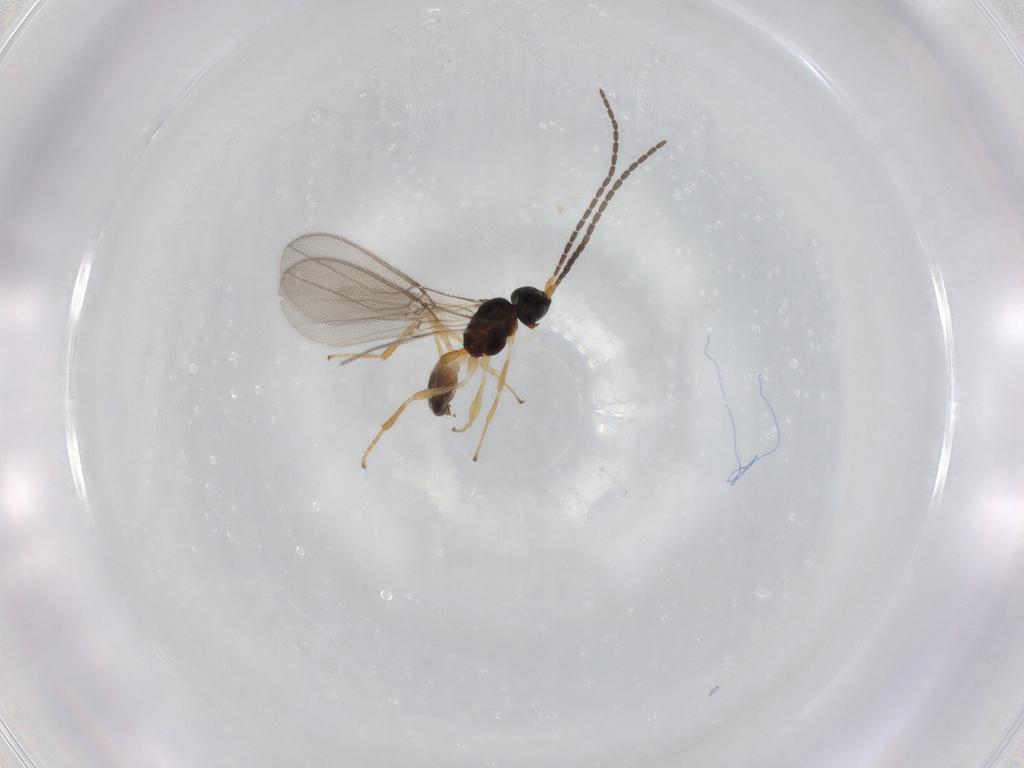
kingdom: Animalia
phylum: Arthropoda
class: Insecta
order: Hymenoptera
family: Braconidae
